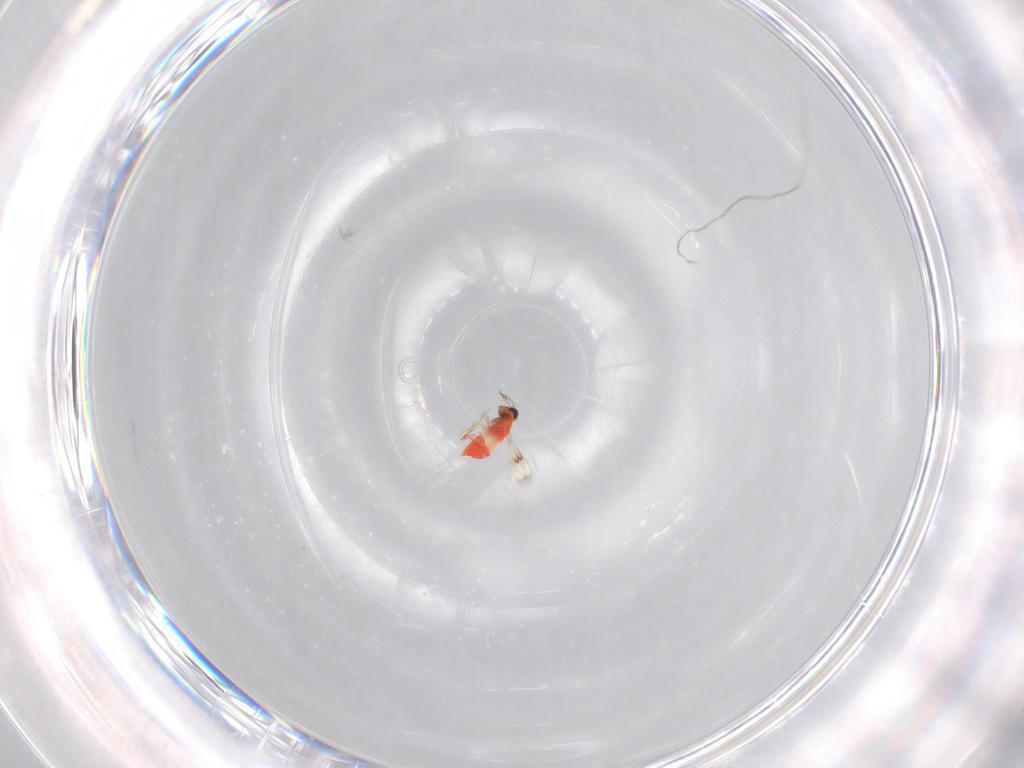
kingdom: Animalia
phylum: Arthropoda
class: Insecta
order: Hymenoptera
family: Trichogrammatidae
